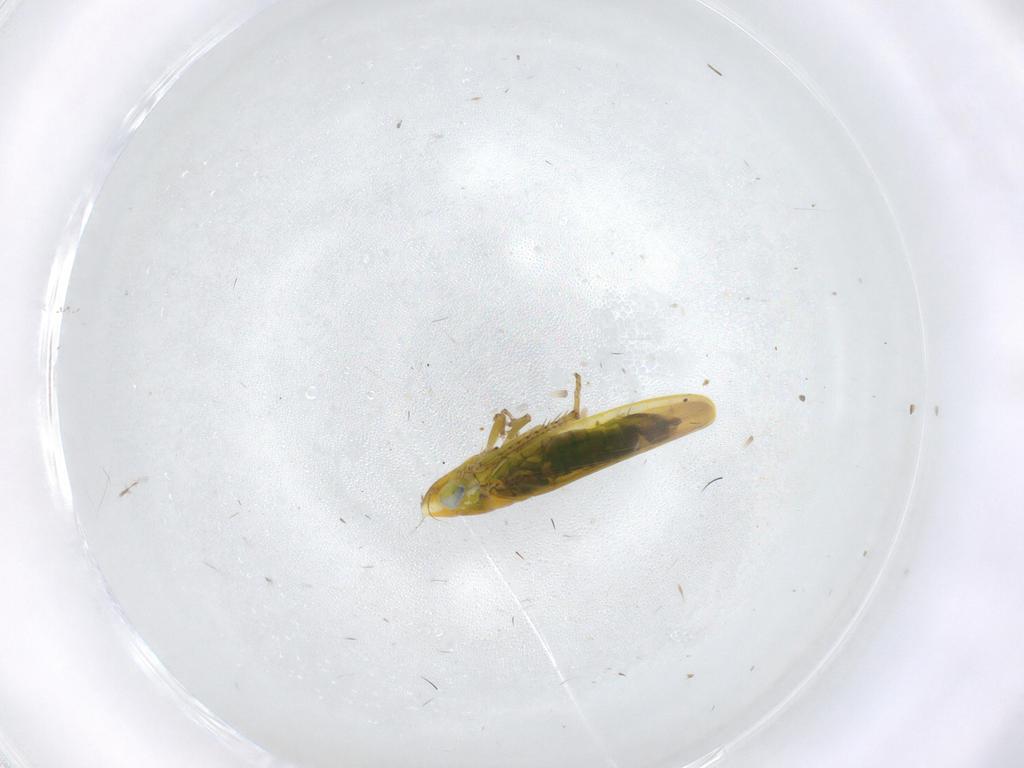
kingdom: Animalia
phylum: Arthropoda
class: Insecta
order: Hemiptera
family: Cicadellidae
